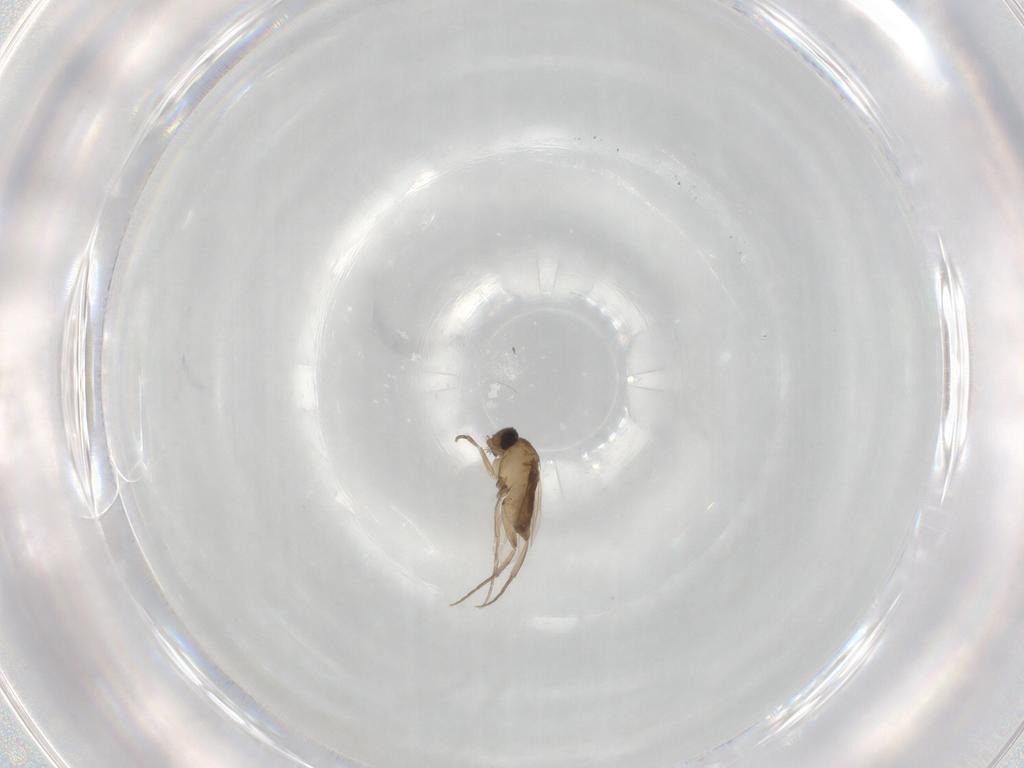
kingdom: Animalia
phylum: Arthropoda
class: Insecta
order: Diptera
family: Phoridae
